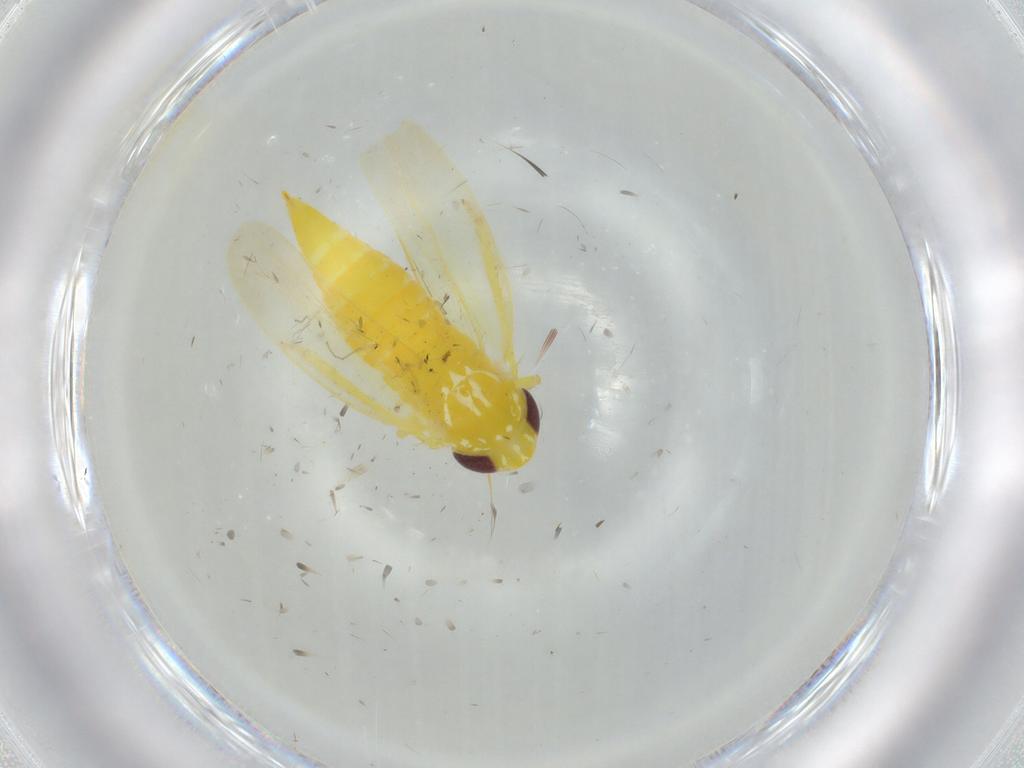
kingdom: Animalia
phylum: Arthropoda
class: Insecta
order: Hemiptera
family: Cicadellidae
